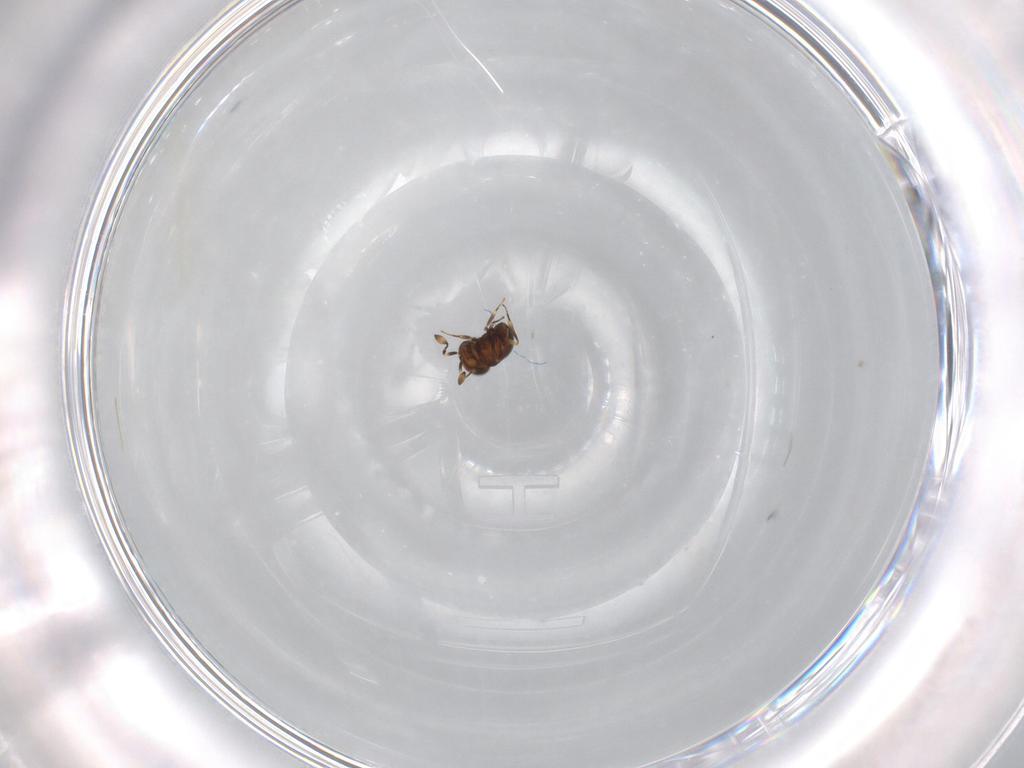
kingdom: Animalia
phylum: Arthropoda
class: Insecta
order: Hymenoptera
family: Scelionidae
